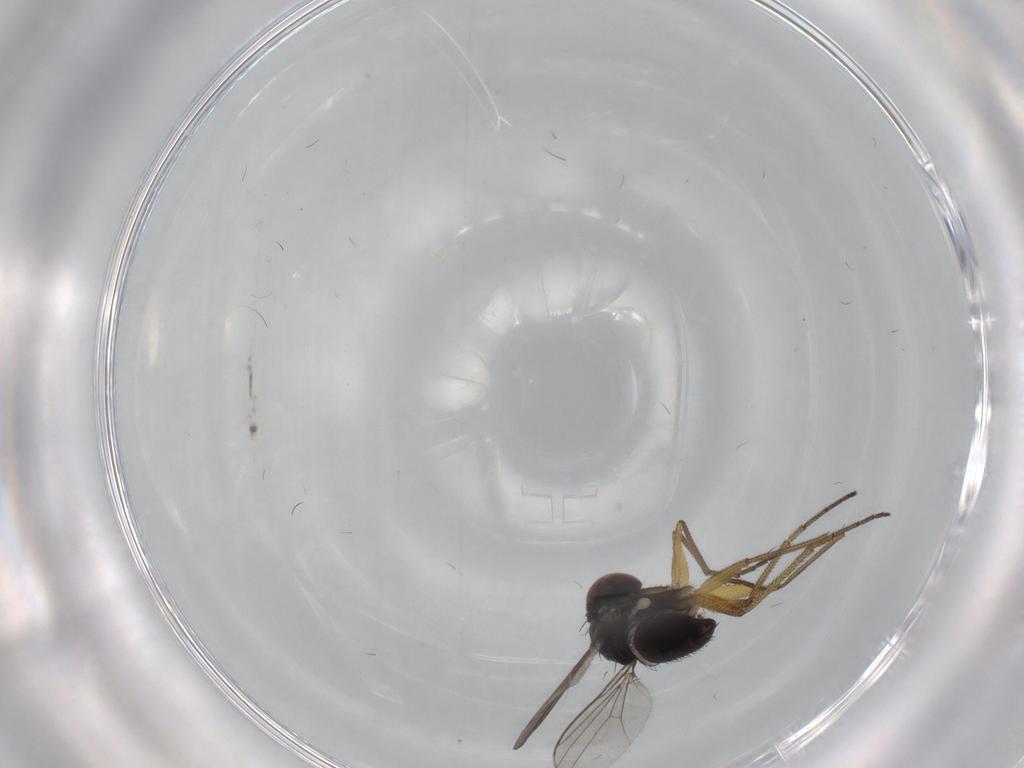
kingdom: Animalia
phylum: Arthropoda
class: Insecta
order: Diptera
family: Dolichopodidae
